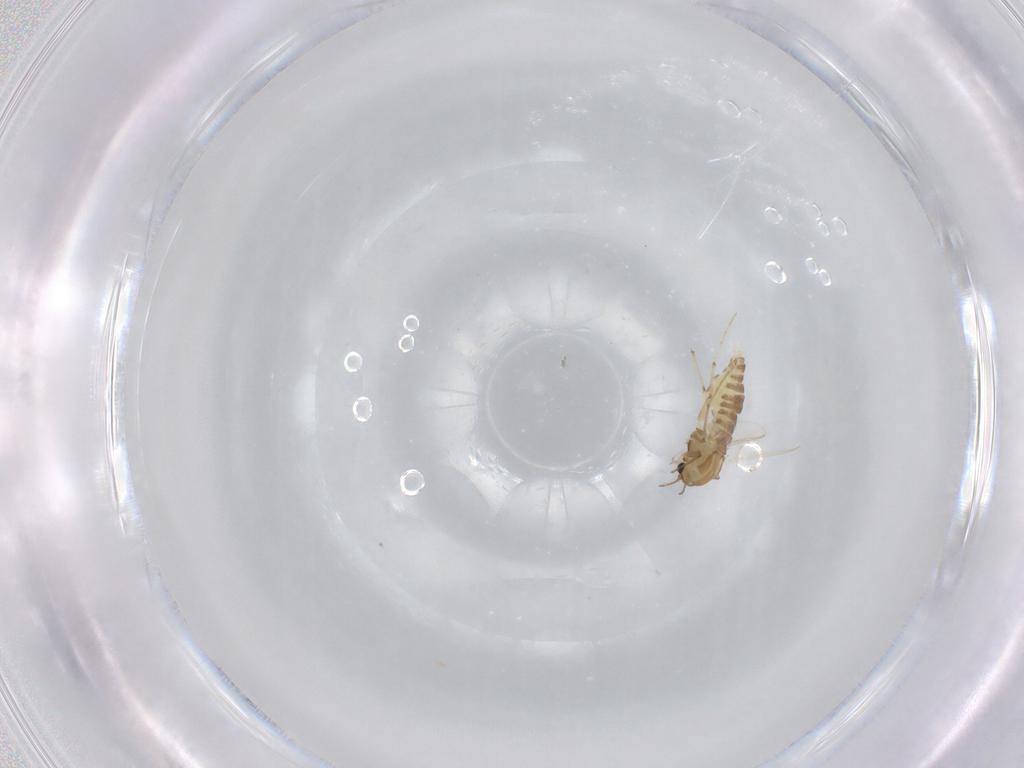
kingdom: Animalia
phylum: Arthropoda
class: Insecta
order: Diptera
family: Chironomidae
